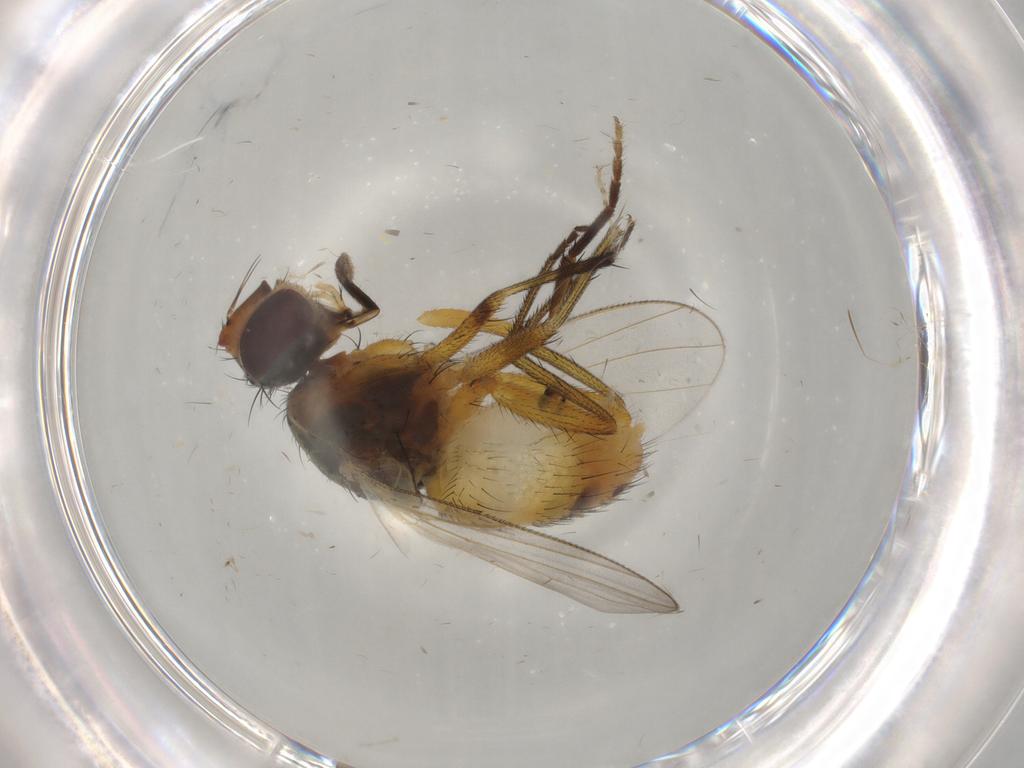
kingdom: Animalia
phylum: Arthropoda
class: Insecta
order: Diptera
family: Muscidae
